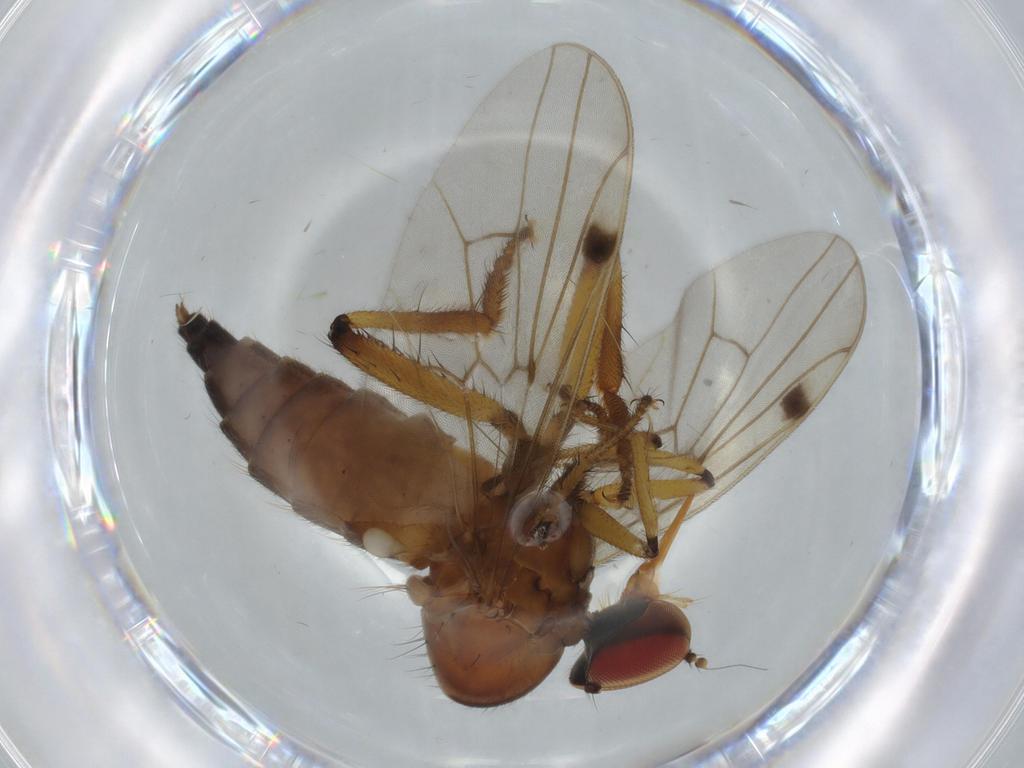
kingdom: Animalia
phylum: Arthropoda
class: Insecta
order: Diptera
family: Hybotidae
